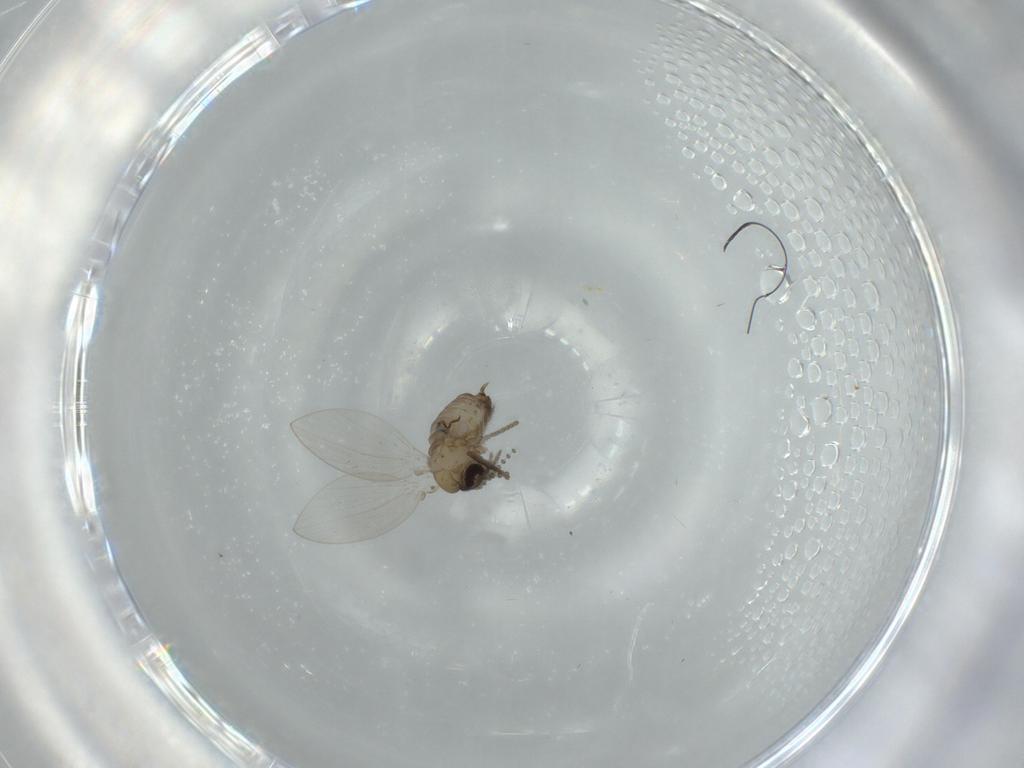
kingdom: Animalia
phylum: Arthropoda
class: Insecta
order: Diptera
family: Psychodidae
